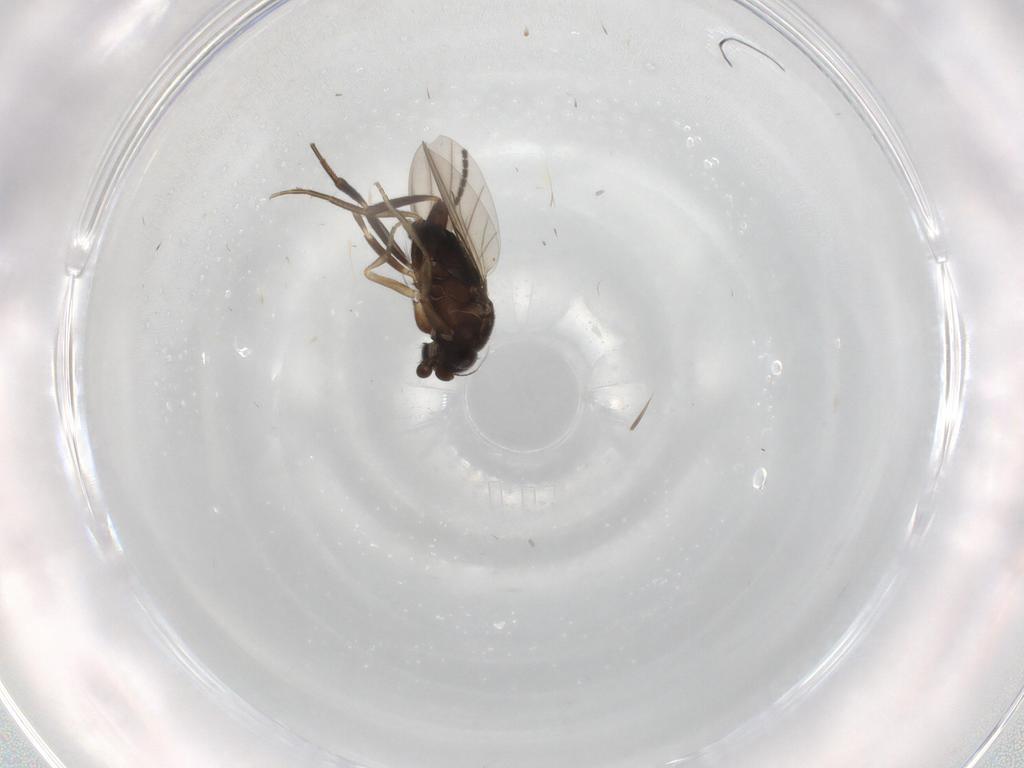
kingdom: Animalia
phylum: Arthropoda
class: Insecta
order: Diptera
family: Sciaridae
